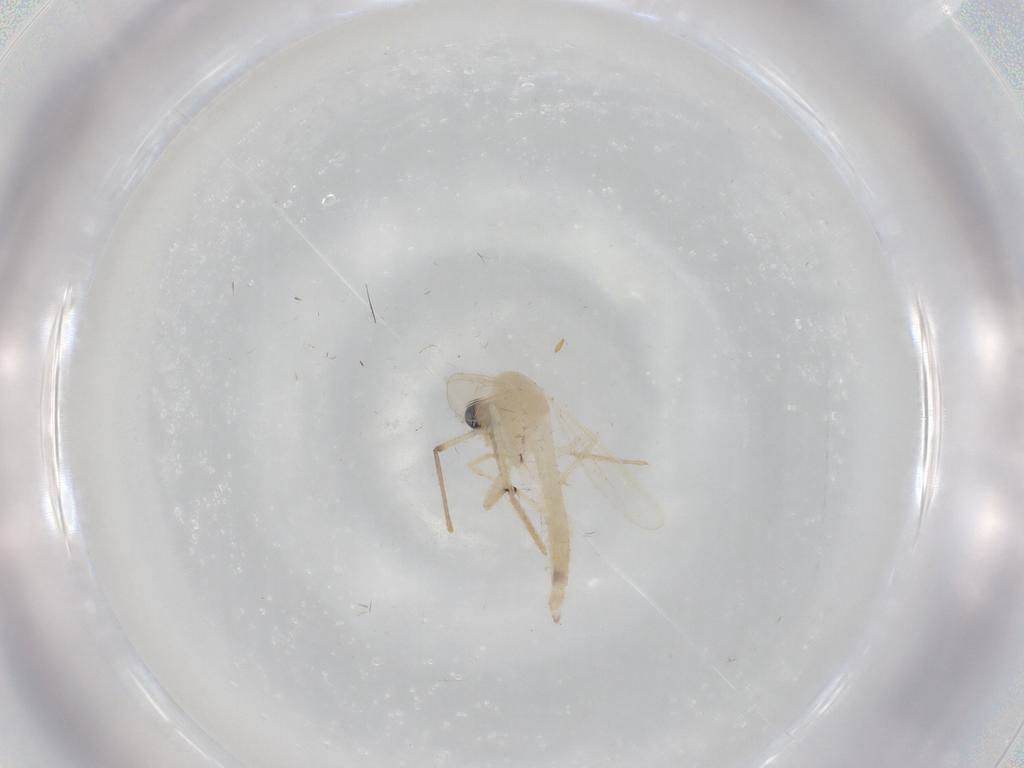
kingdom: Animalia
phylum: Arthropoda
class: Insecta
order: Diptera
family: Chironomidae
